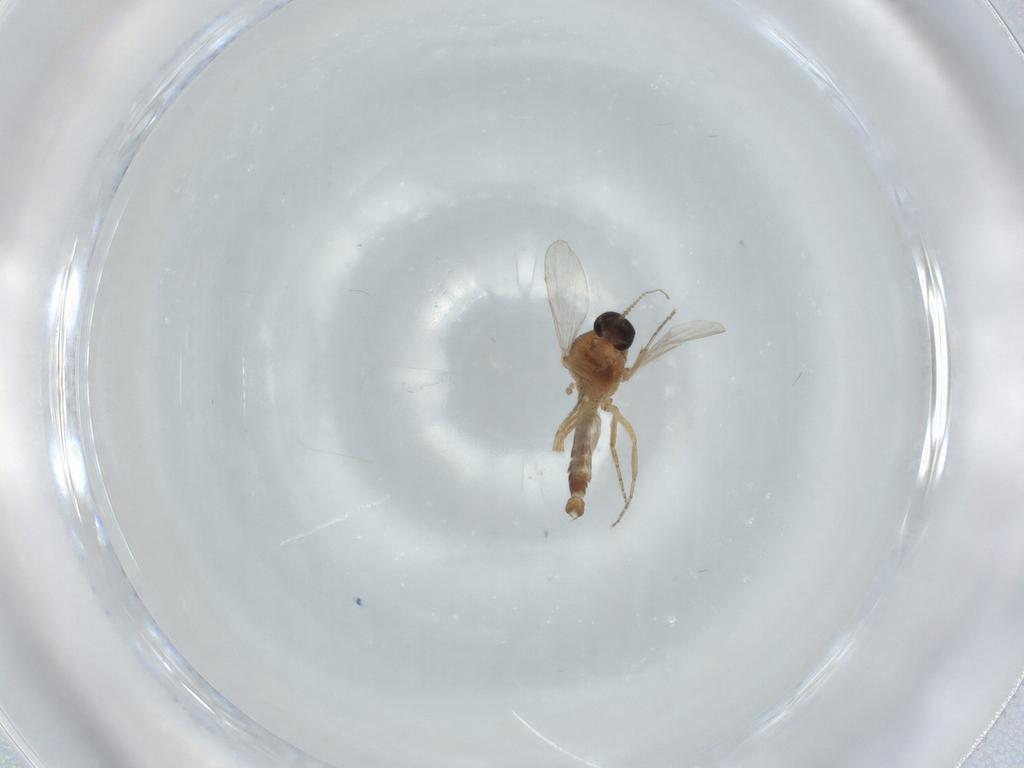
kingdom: Animalia
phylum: Arthropoda
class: Insecta
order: Diptera
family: Ceratopogonidae
